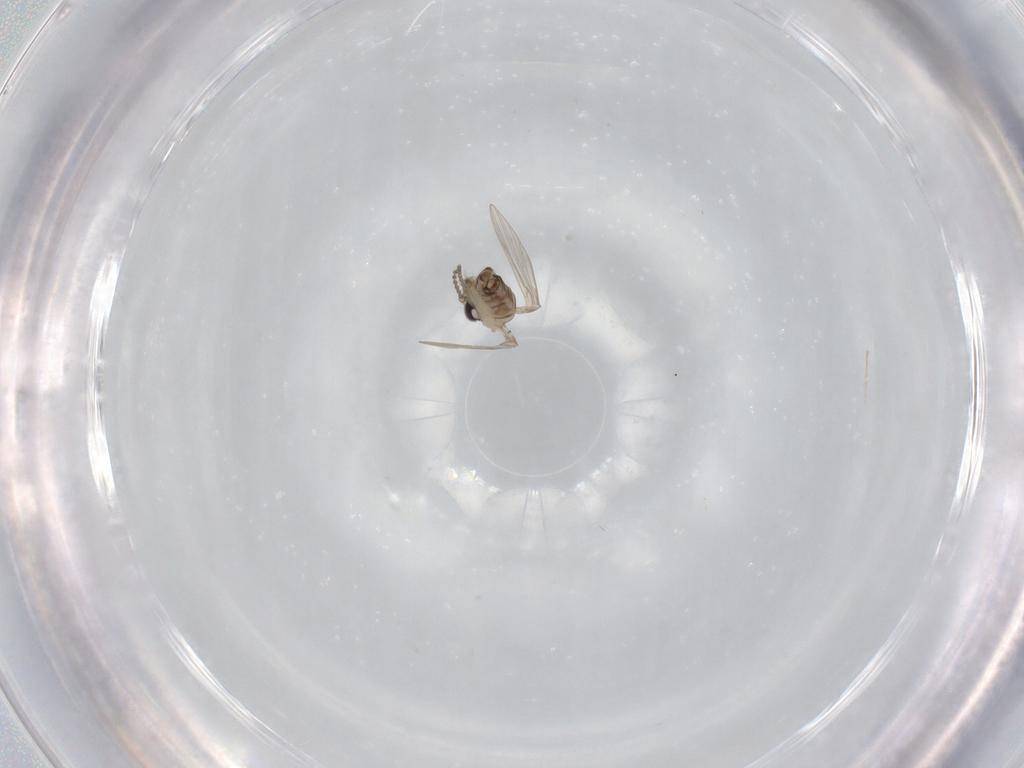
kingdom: Animalia
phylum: Arthropoda
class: Insecta
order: Diptera
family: Psychodidae
